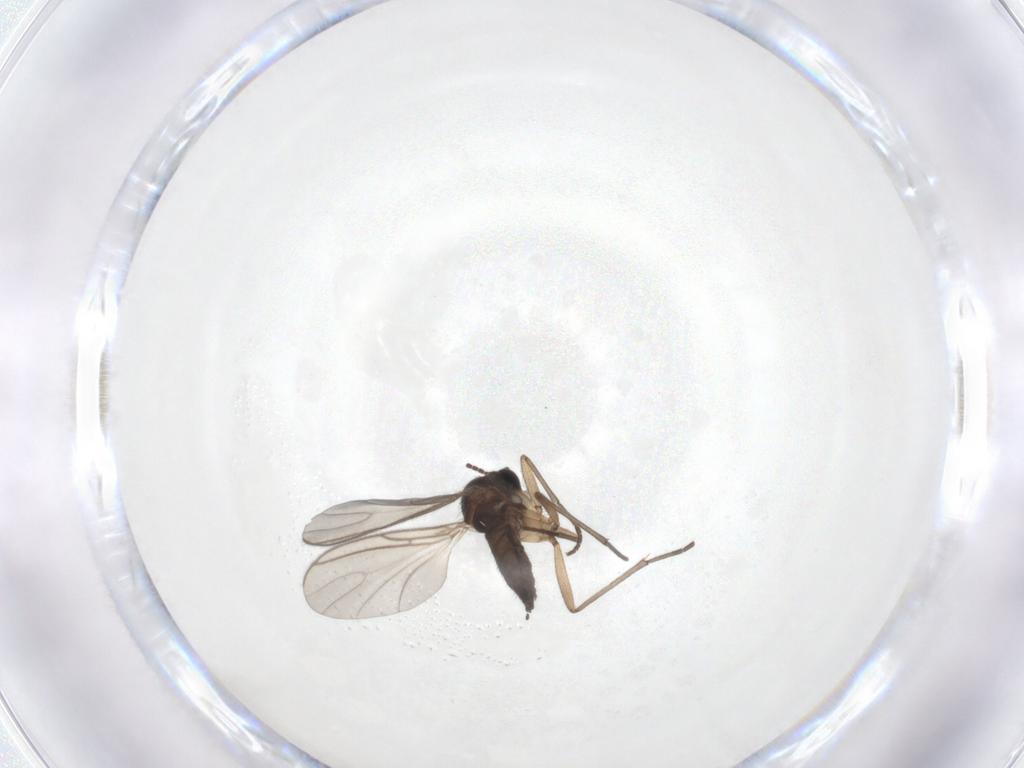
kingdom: Animalia
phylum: Arthropoda
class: Insecta
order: Diptera
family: Sciaridae
